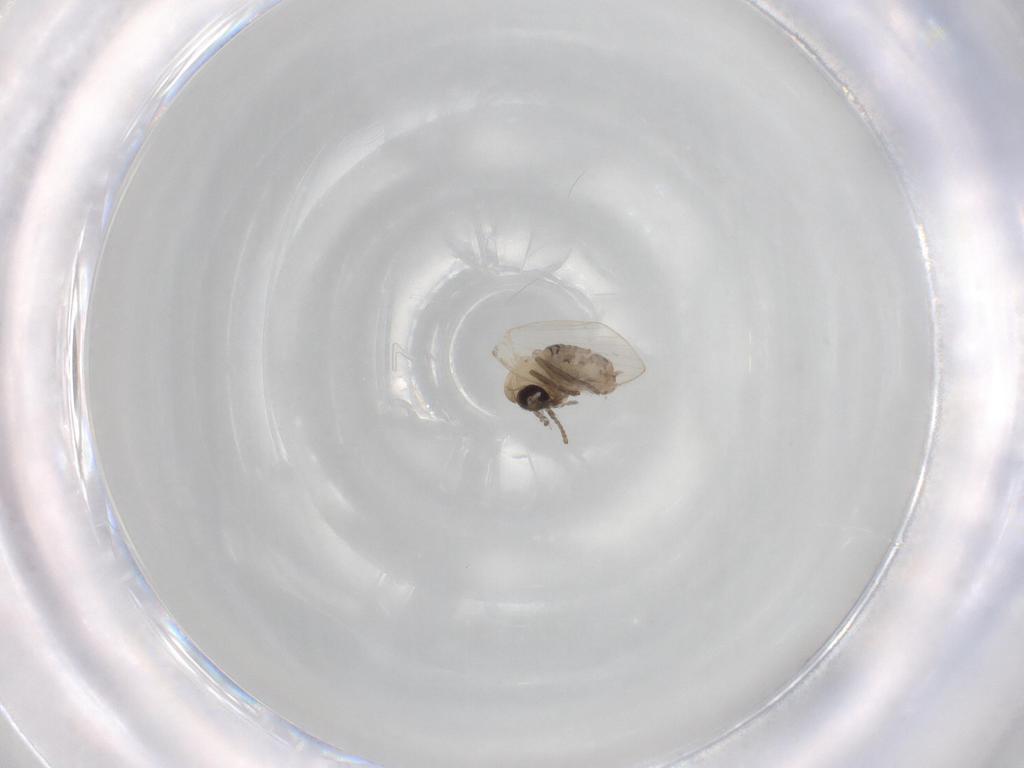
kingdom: Animalia
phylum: Arthropoda
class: Insecta
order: Diptera
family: Psychodidae
